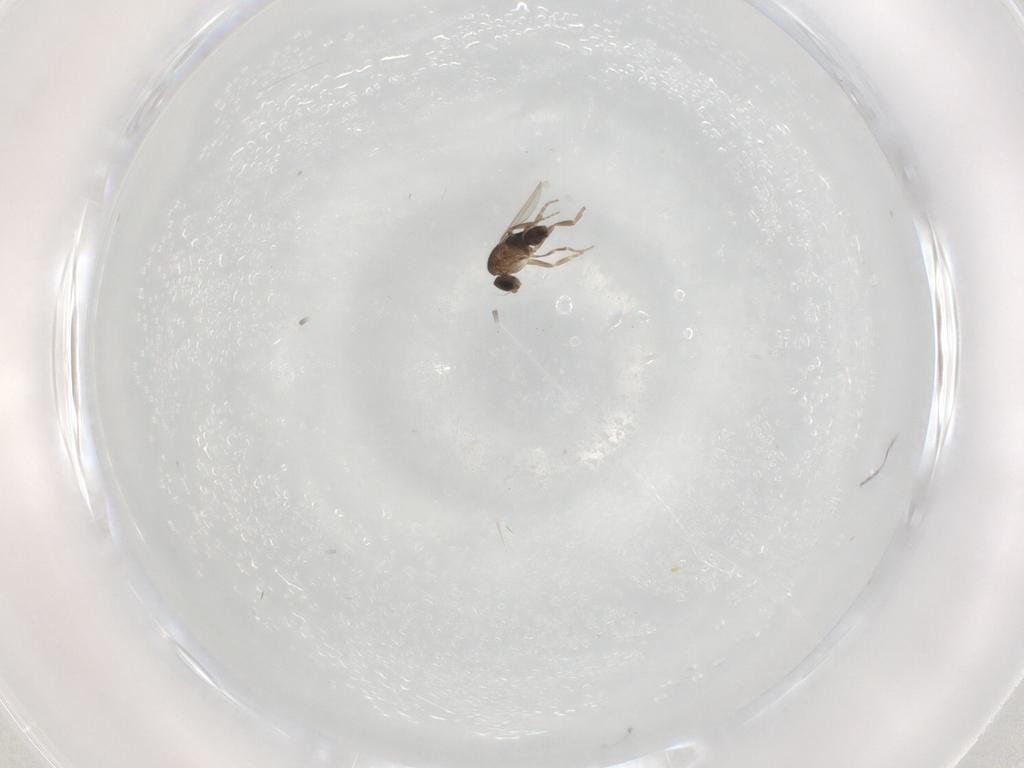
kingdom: Animalia
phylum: Arthropoda
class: Insecta
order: Diptera
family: Phoridae
